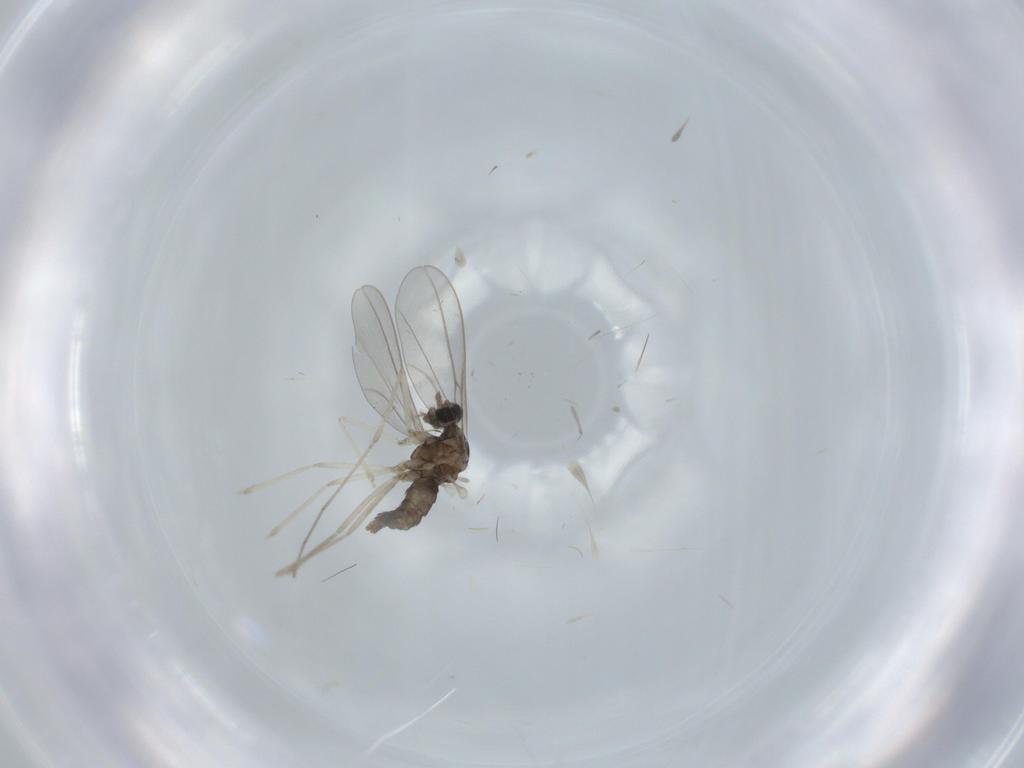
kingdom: Animalia
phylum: Arthropoda
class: Insecta
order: Diptera
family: Cecidomyiidae
